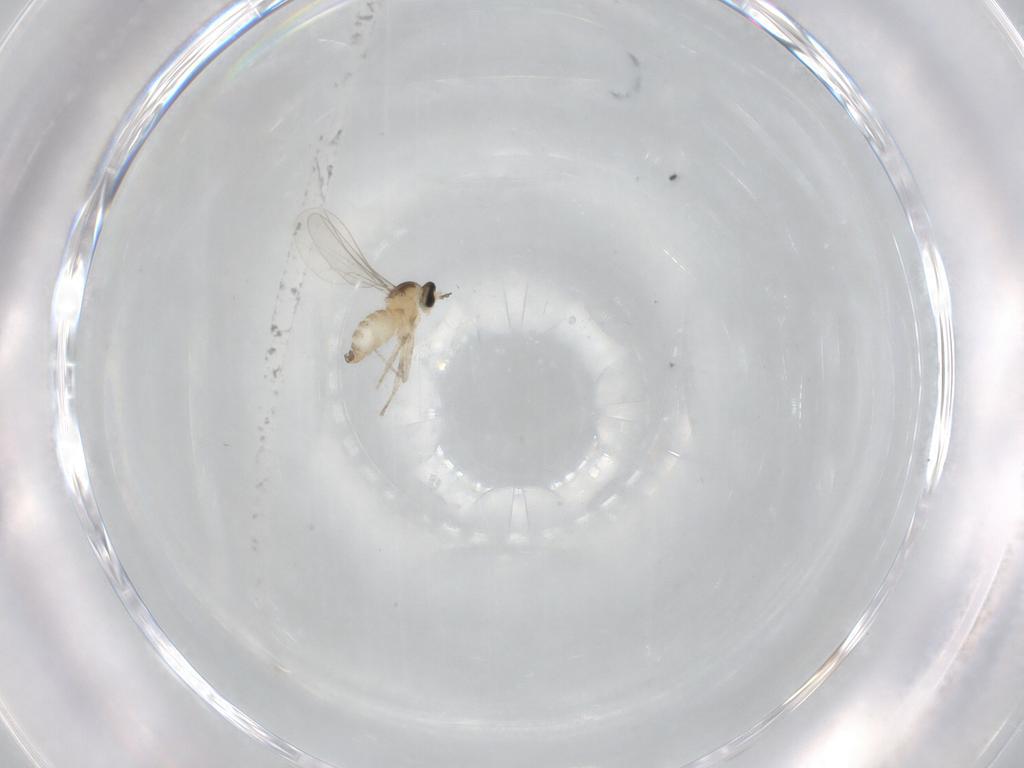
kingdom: Animalia
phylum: Arthropoda
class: Insecta
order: Diptera
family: Cecidomyiidae
